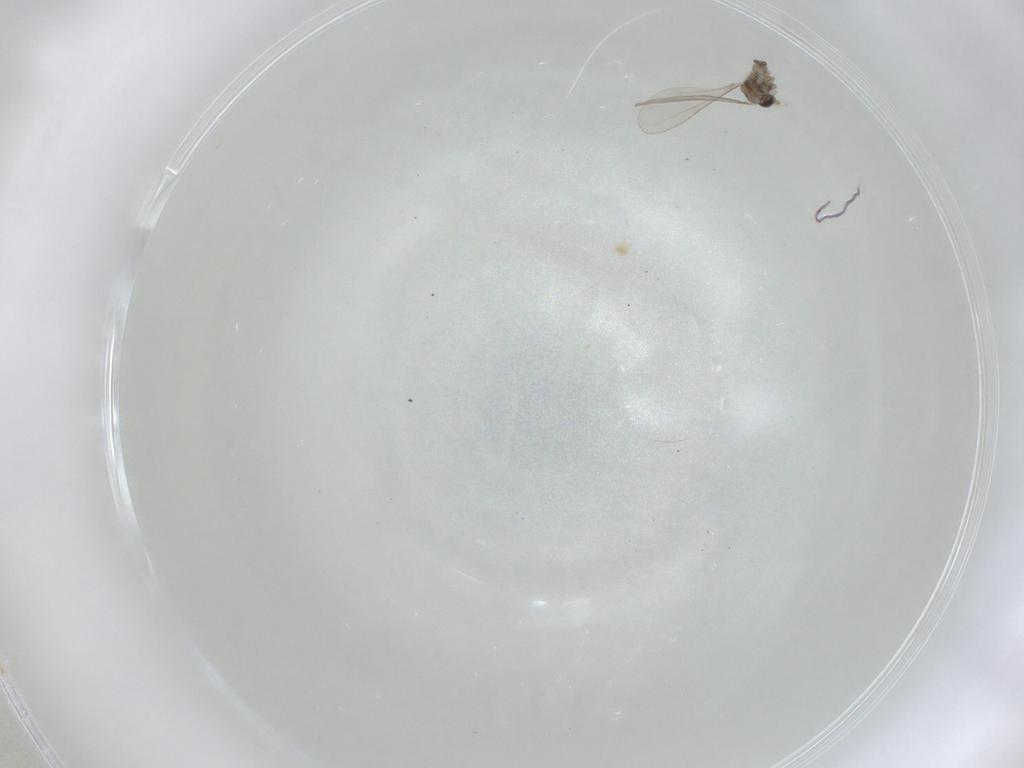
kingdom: Animalia
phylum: Arthropoda
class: Insecta
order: Diptera
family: Cecidomyiidae
